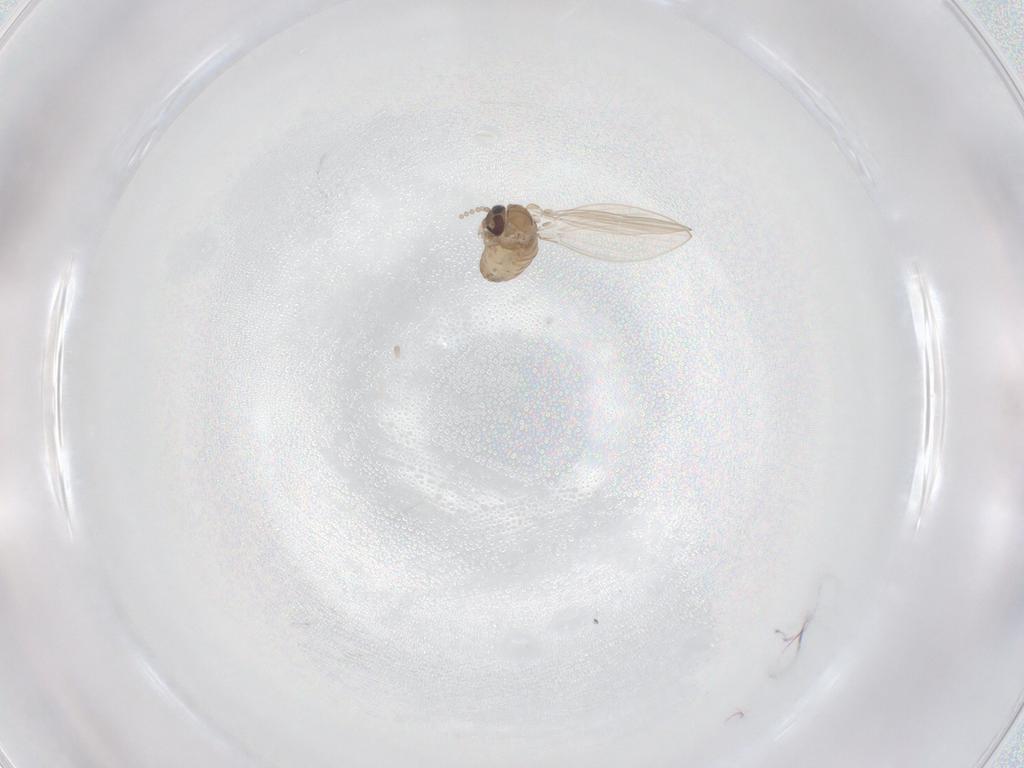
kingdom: Animalia
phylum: Arthropoda
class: Insecta
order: Diptera
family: Psychodidae
